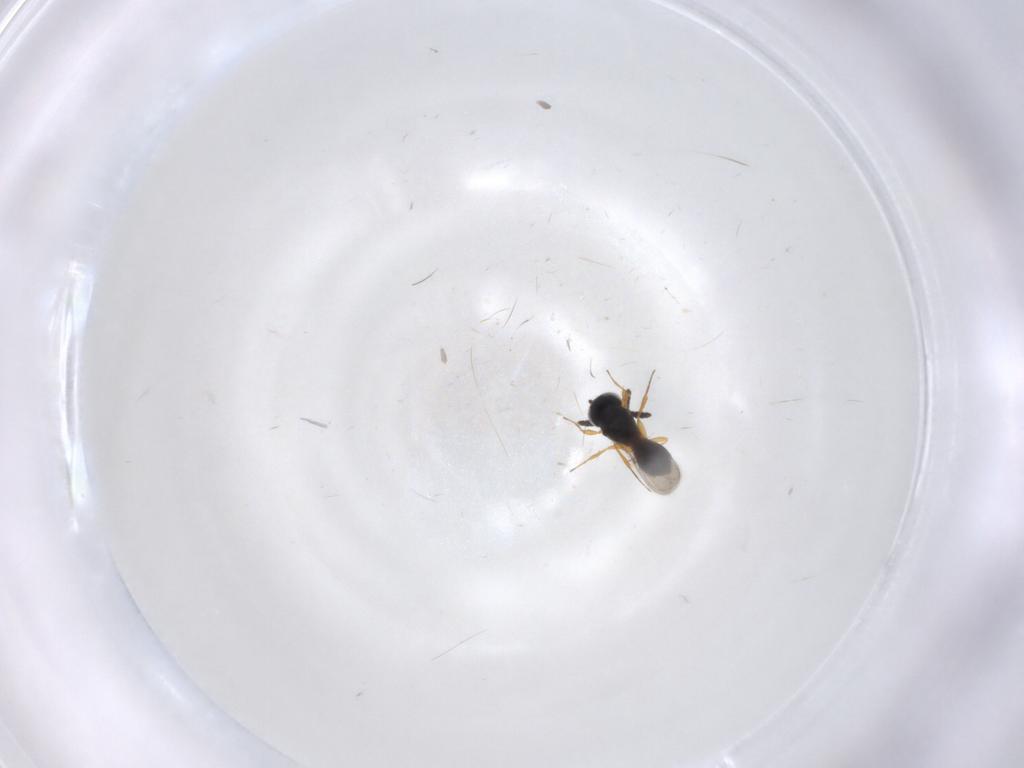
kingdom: Animalia
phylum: Arthropoda
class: Insecta
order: Hymenoptera
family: Scelionidae
